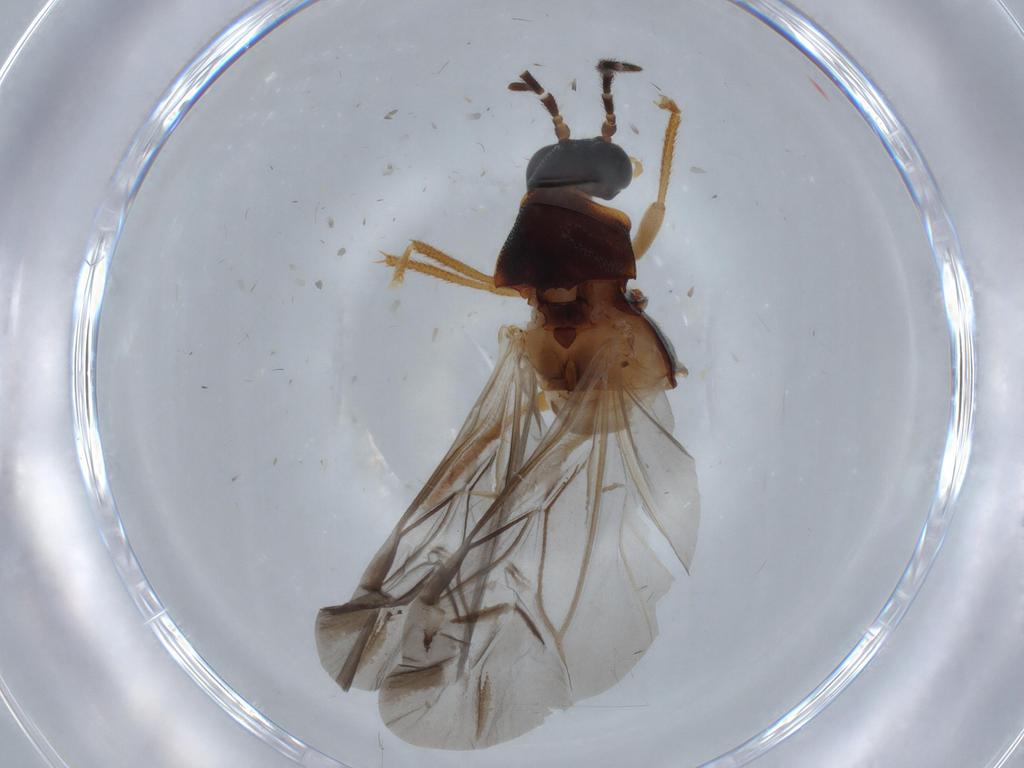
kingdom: Animalia
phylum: Arthropoda
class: Insecta
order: Coleoptera
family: Ptilodactylidae
